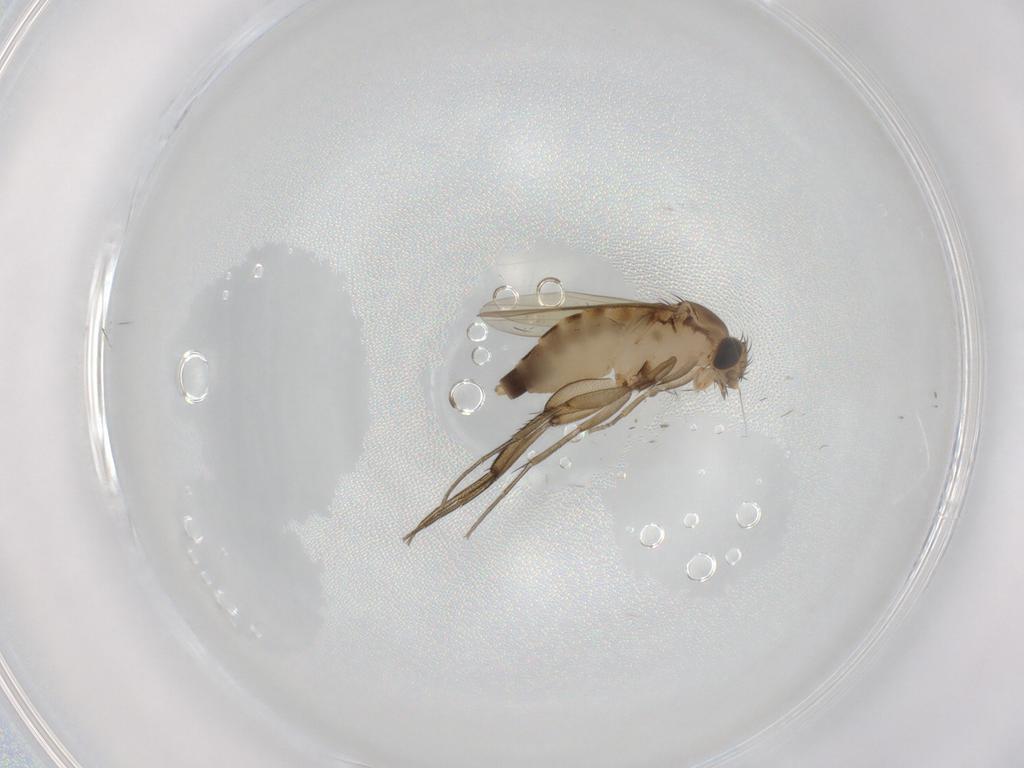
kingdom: Animalia
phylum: Arthropoda
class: Insecta
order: Diptera
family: Phoridae
